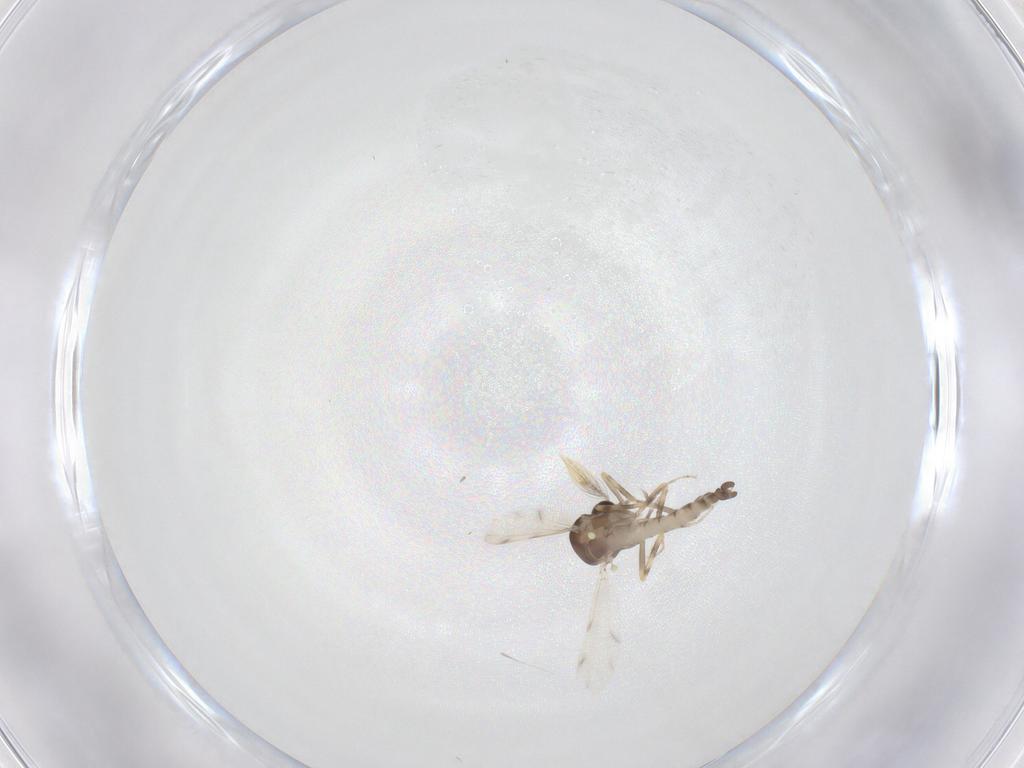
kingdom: Animalia
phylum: Arthropoda
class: Insecta
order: Diptera
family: Ceratopogonidae
